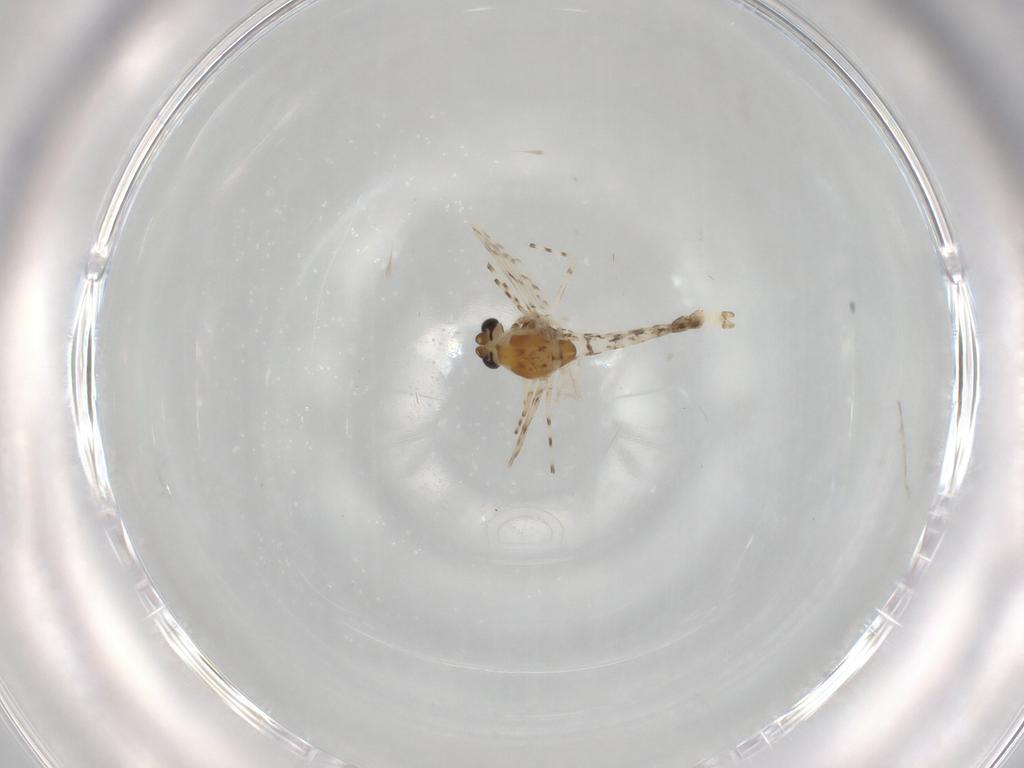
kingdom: Animalia
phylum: Arthropoda
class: Insecta
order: Diptera
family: Chironomidae
